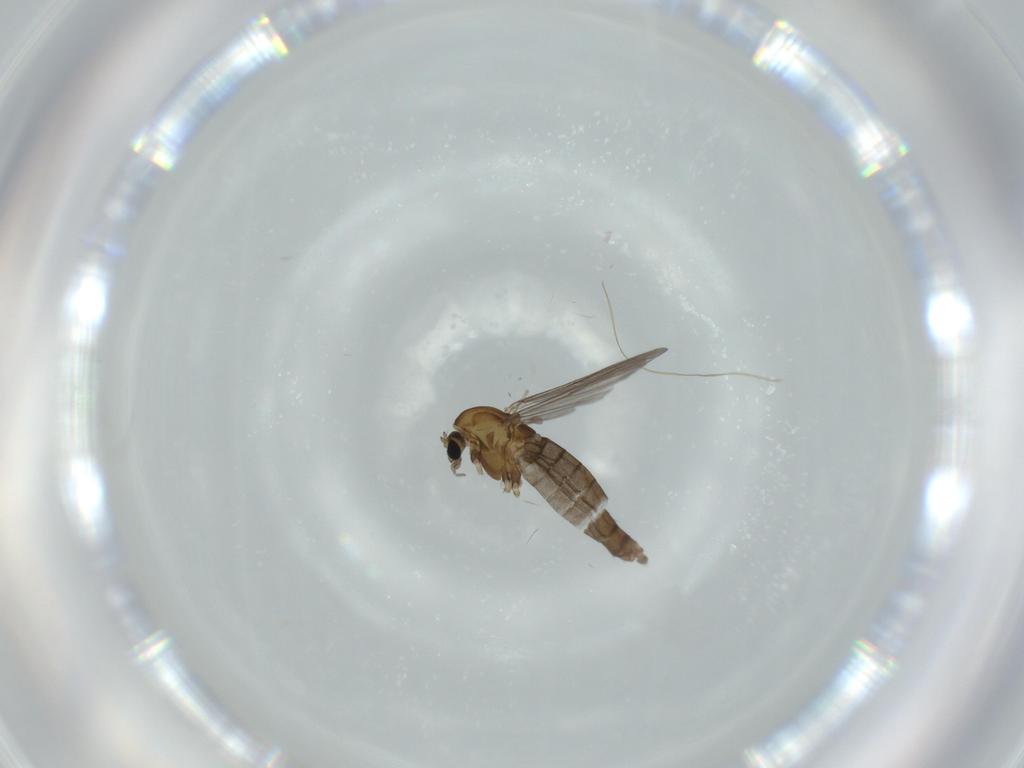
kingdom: Animalia
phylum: Arthropoda
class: Insecta
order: Diptera
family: Chironomidae
